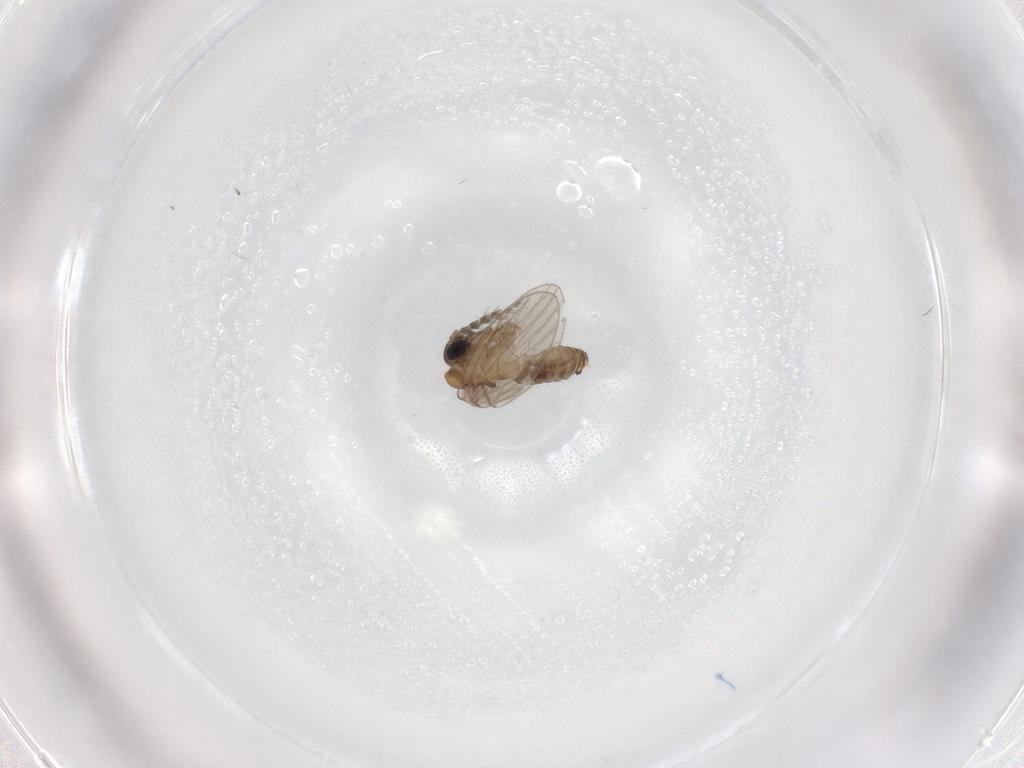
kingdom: Animalia
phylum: Arthropoda
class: Insecta
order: Diptera
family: Psychodidae
